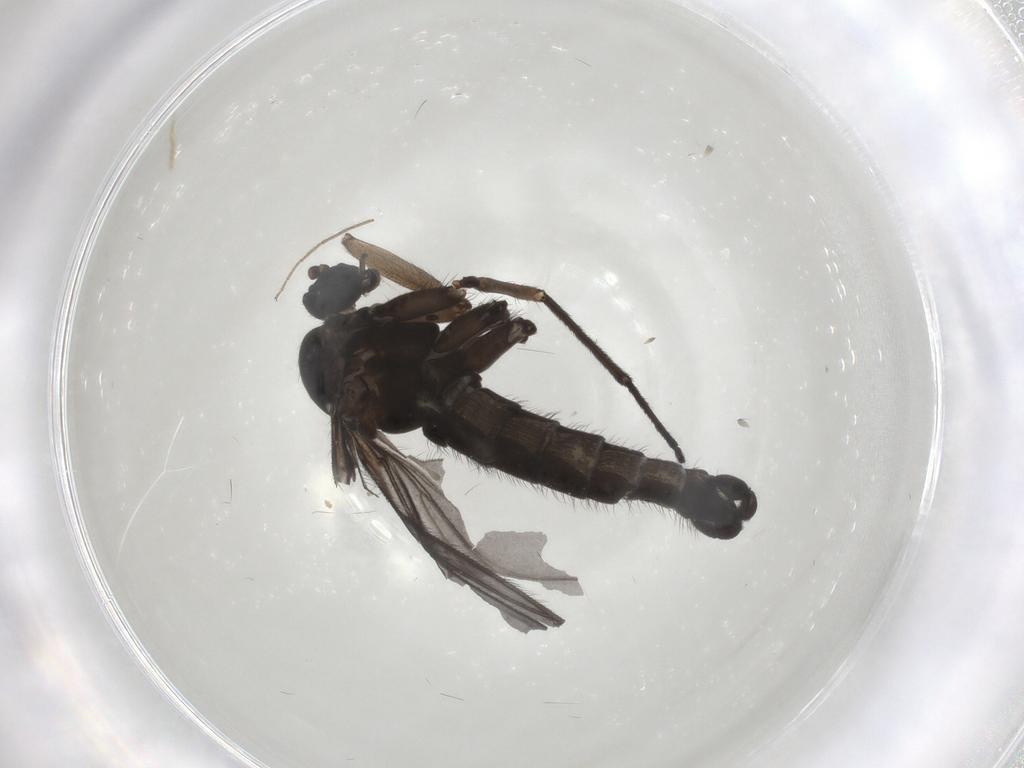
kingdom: Animalia
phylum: Arthropoda
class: Insecta
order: Diptera
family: Sciaridae
